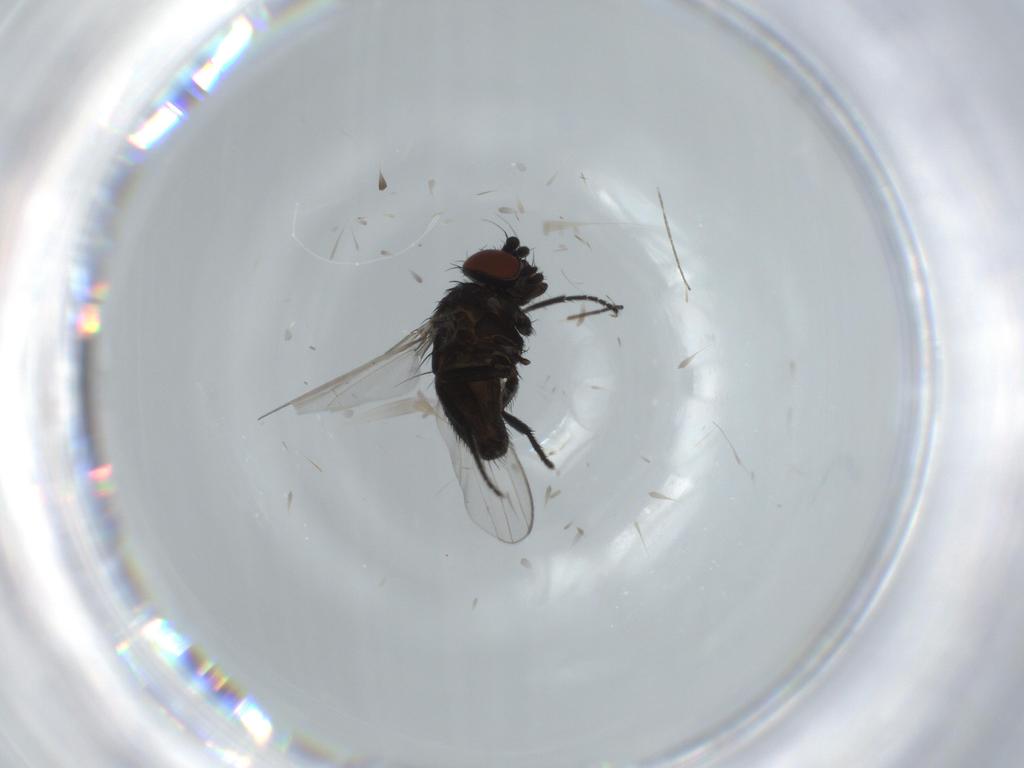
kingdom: Animalia
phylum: Arthropoda
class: Insecta
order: Diptera
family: Milichiidae
